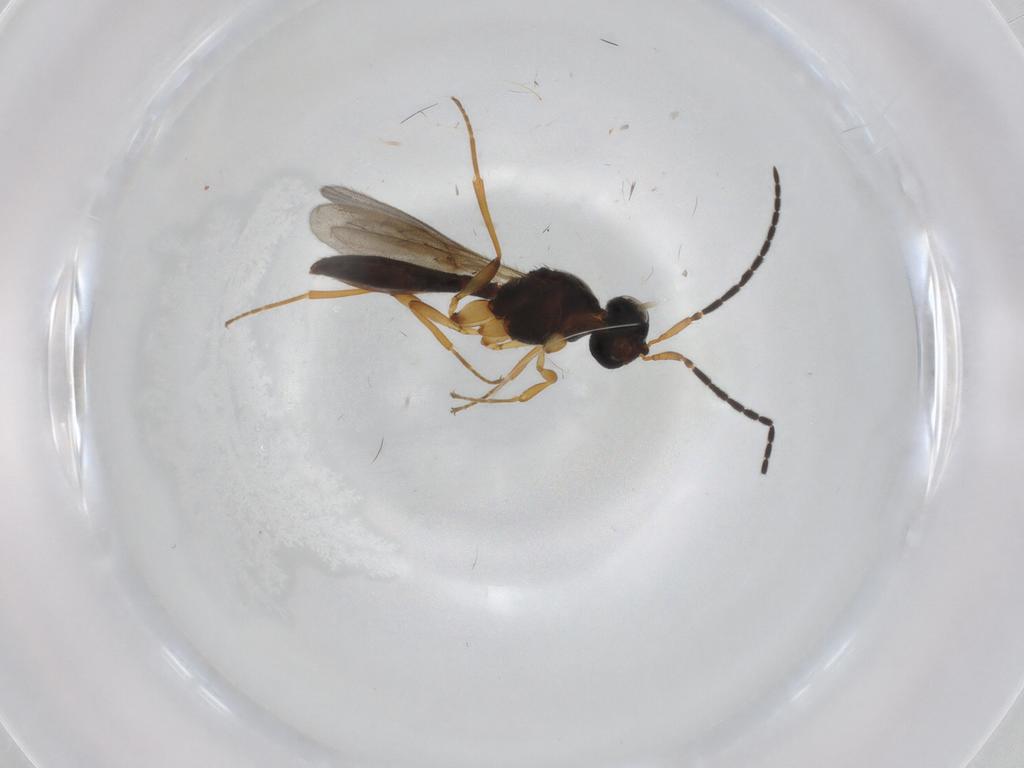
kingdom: Animalia
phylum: Arthropoda
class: Insecta
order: Hymenoptera
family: Scelionidae
